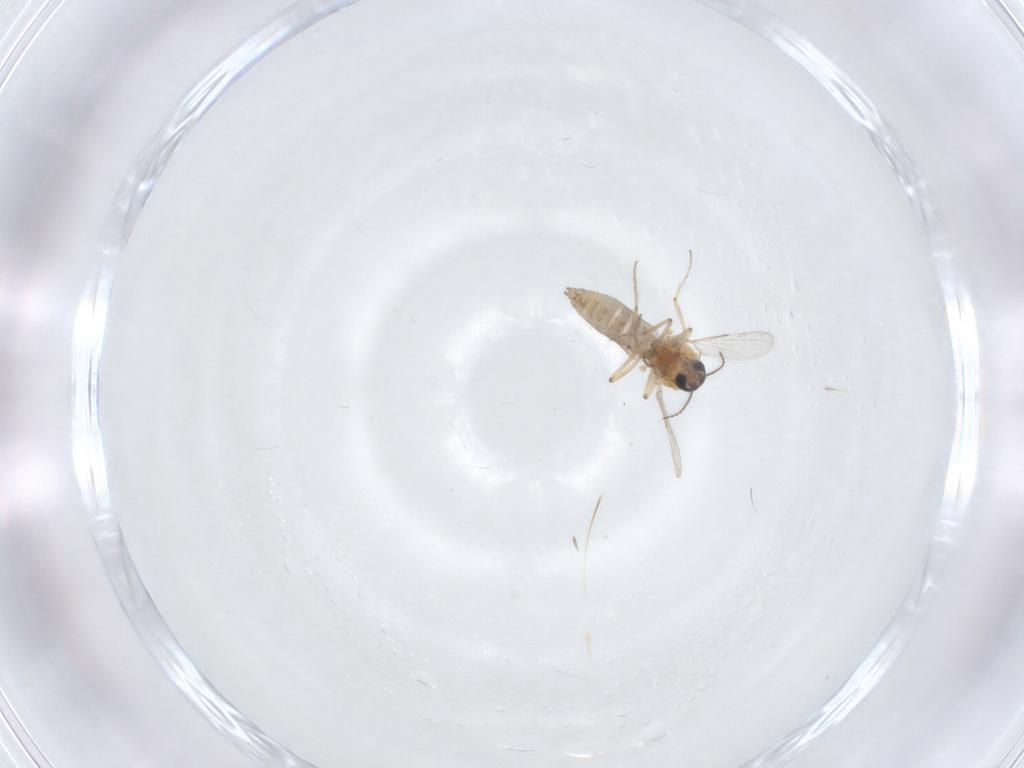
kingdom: Animalia
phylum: Arthropoda
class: Insecta
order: Diptera
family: Ceratopogonidae
